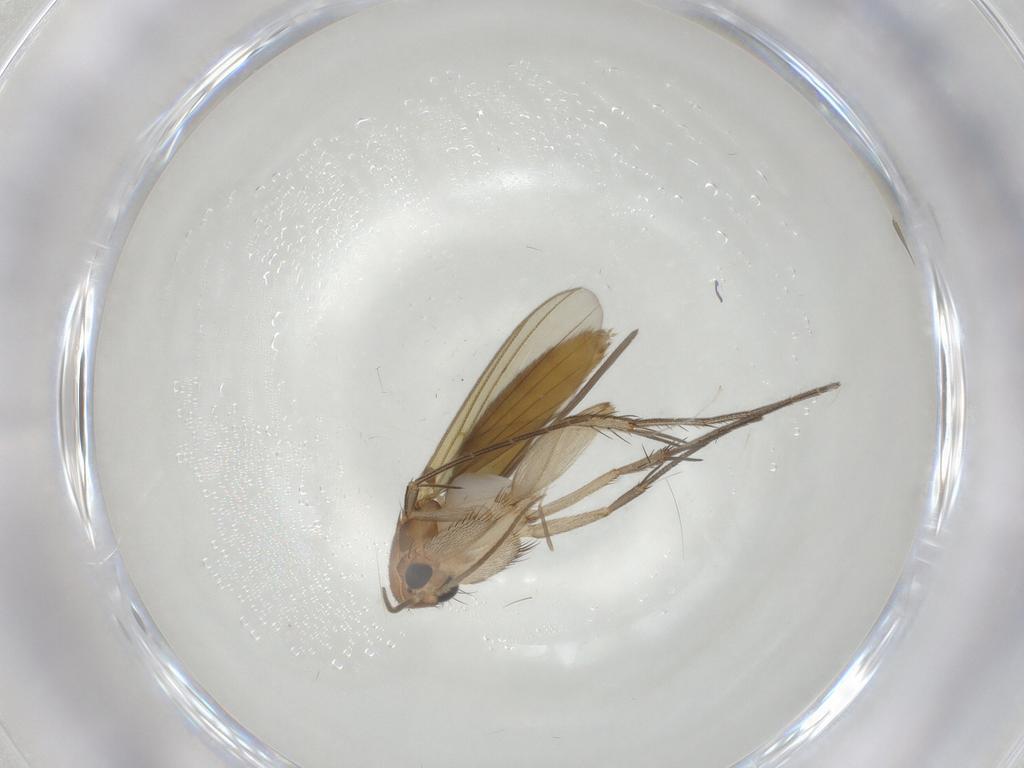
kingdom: Animalia
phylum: Arthropoda
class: Insecta
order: Diptera
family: Mycetophilidae
